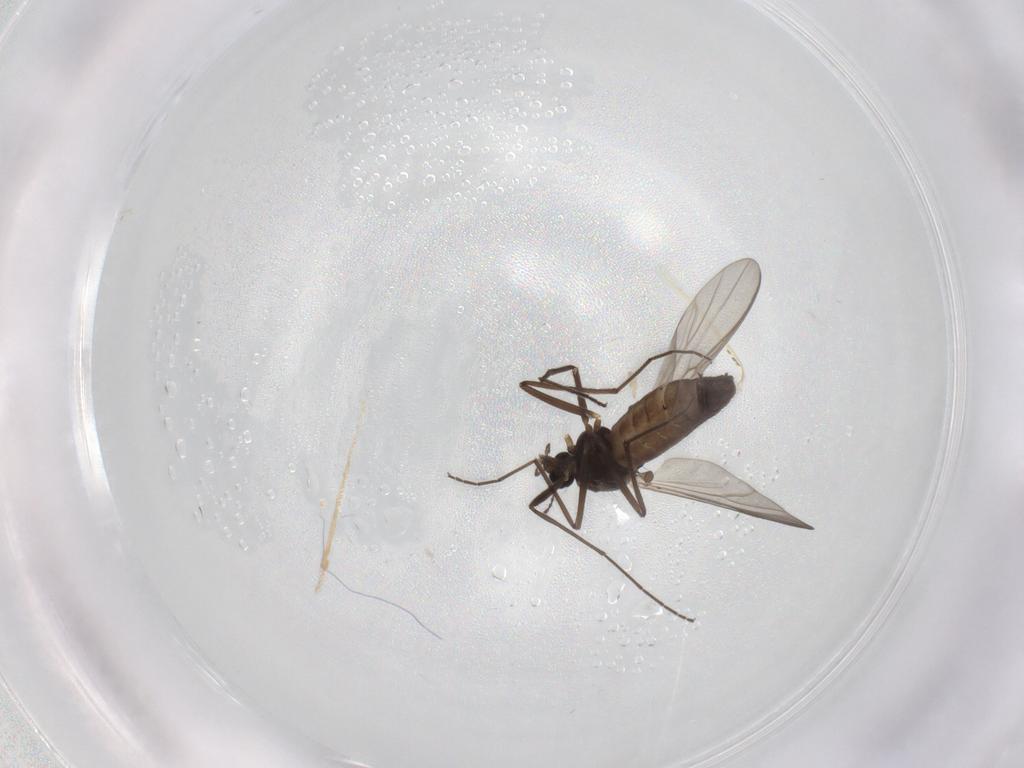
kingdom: Animalia
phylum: Arthropoda
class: Insecta
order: Diptera
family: Chironomidae
